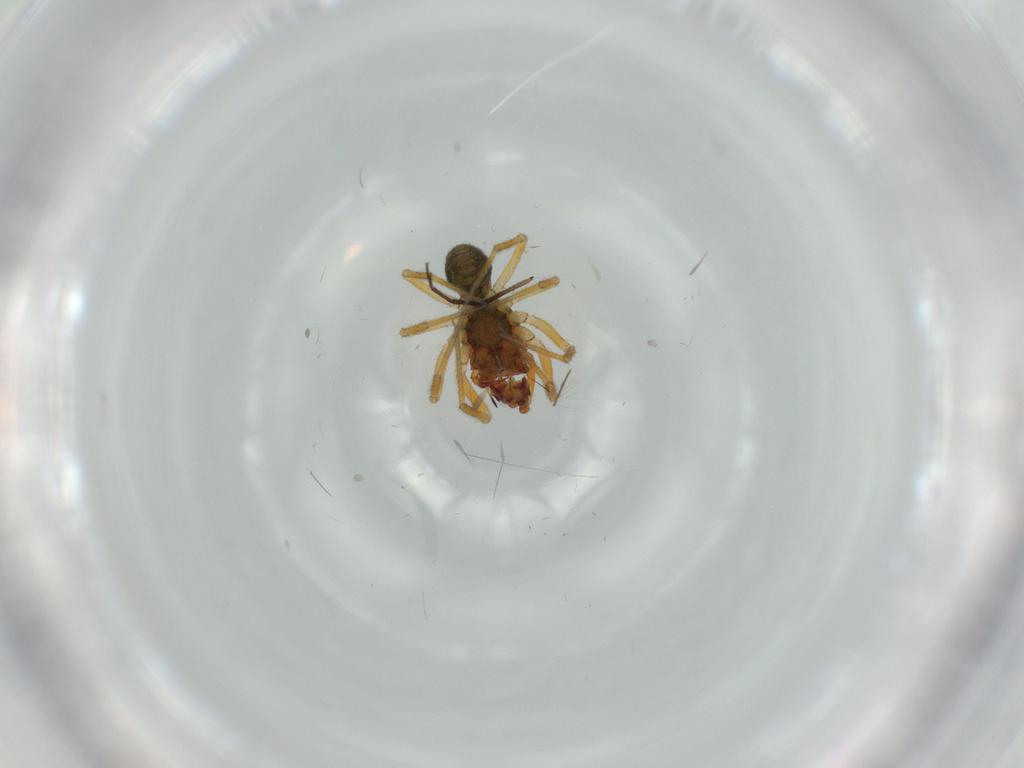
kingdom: Animalia
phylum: Arthropoda
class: Arachnida
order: Araneae
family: Linyphiidae
